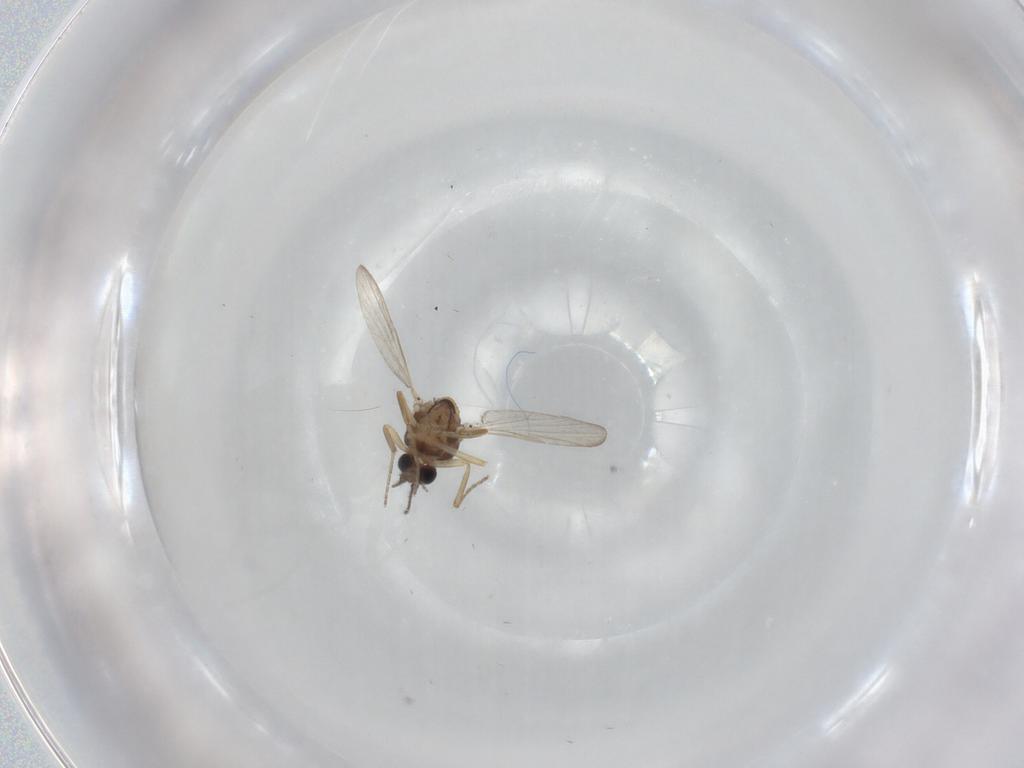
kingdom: Animalia
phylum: Arthropoda
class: Insecta
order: Diptera
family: Ceratopogonidae
